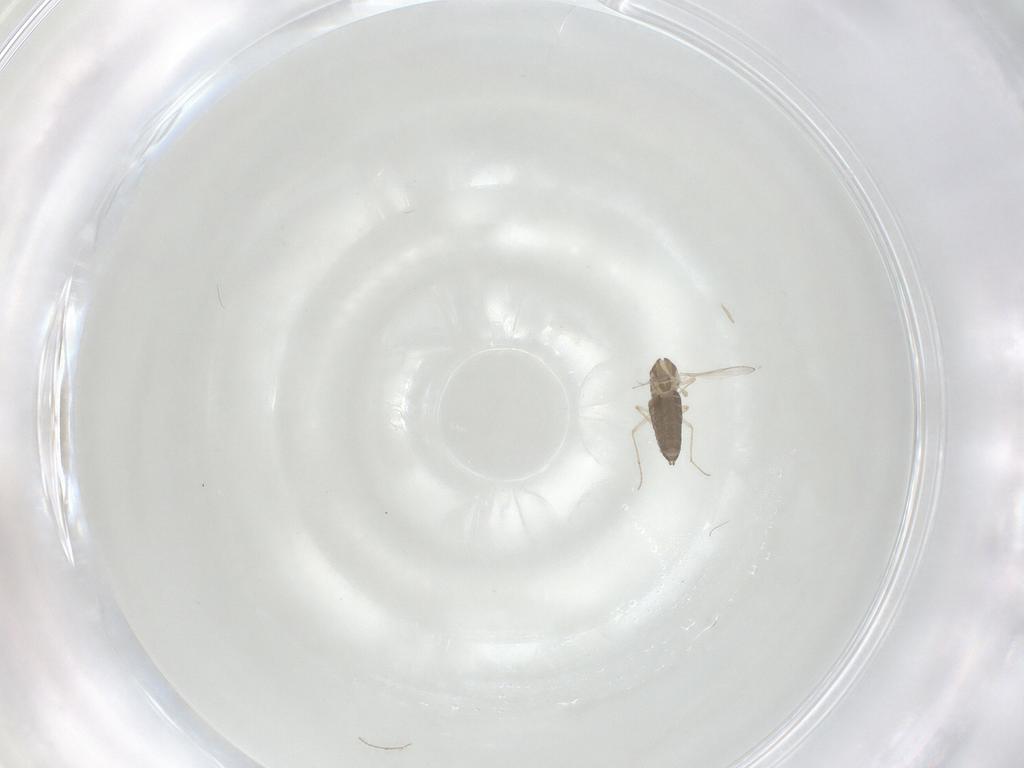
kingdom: Animalia
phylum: Arthropoda
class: Insecta
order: Diptera
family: Chironomidae
